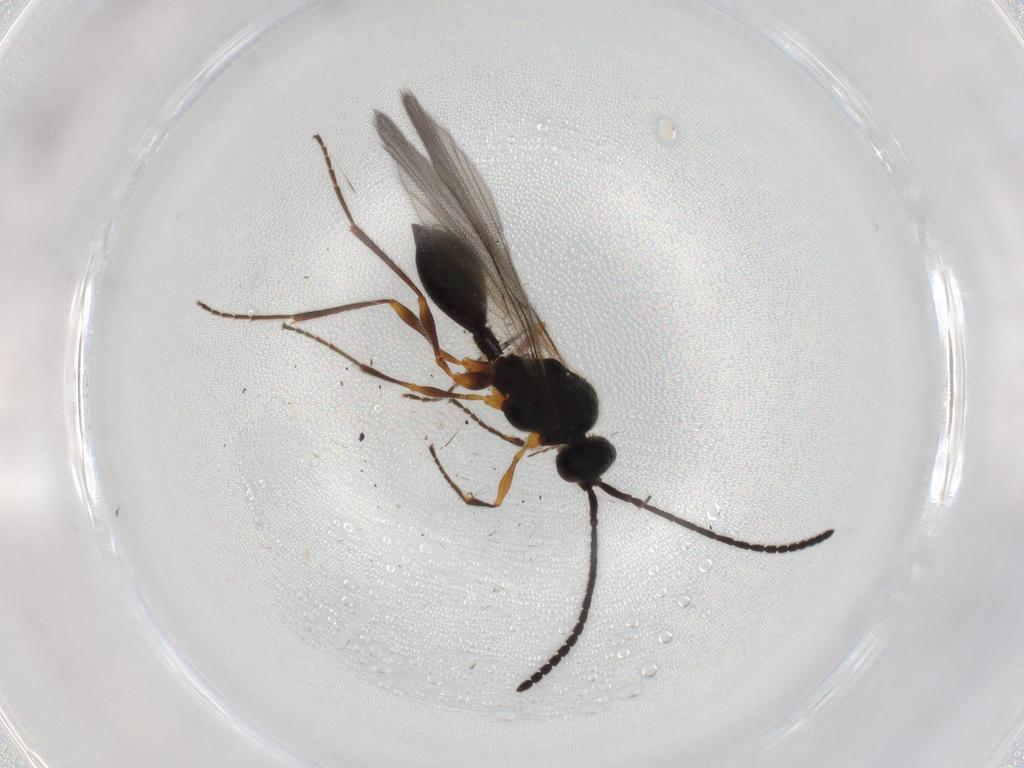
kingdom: Animalia
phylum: Arthropoda
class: Insecta
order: Hymenoptera
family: Diapriidae
